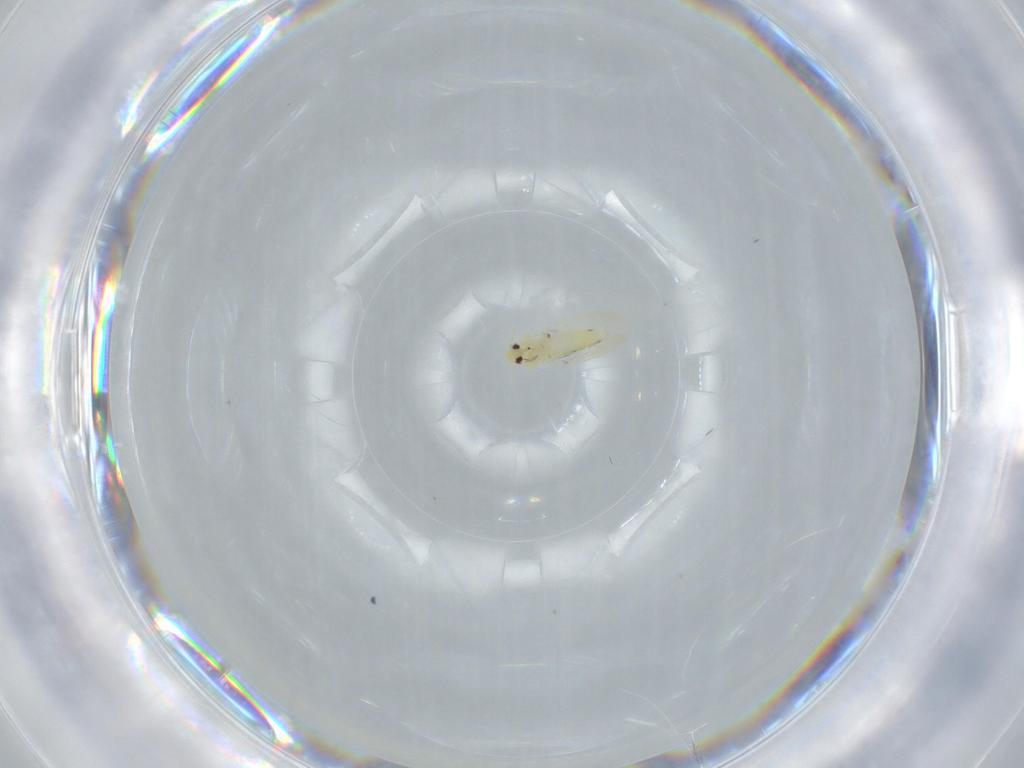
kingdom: Animalia
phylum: Arthropoda
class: Insecta
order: Hemiptera
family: Aleyrodidae
